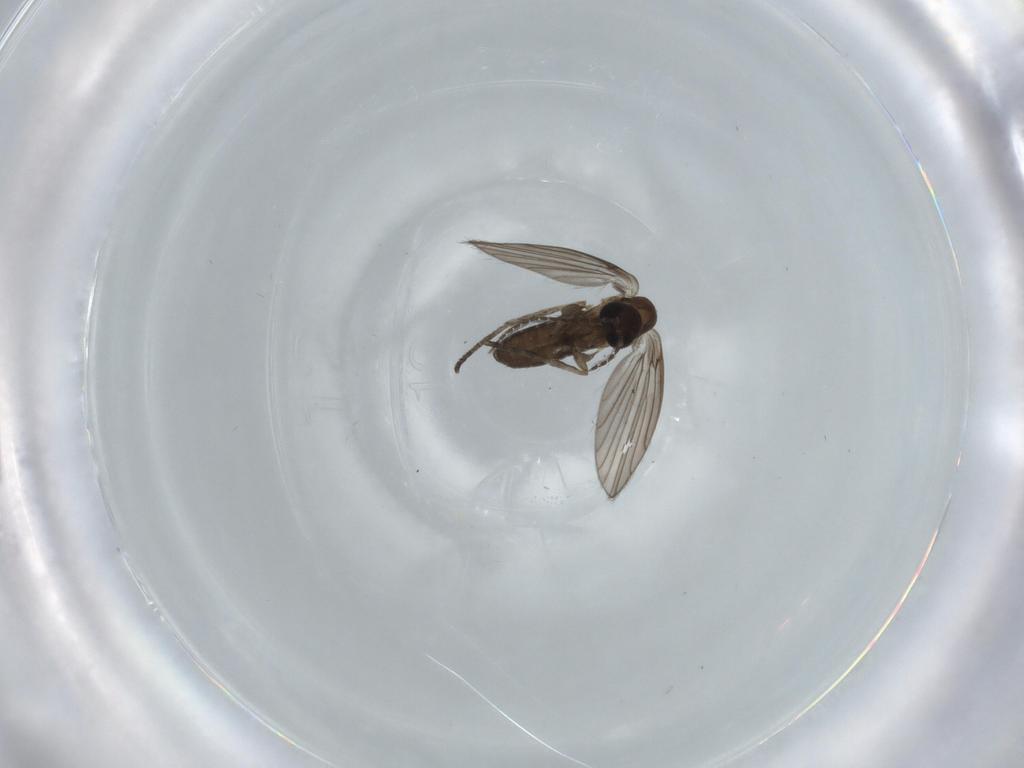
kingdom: Animalia
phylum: Arthropoda
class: Insecta
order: Diptera
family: Psychodidae
